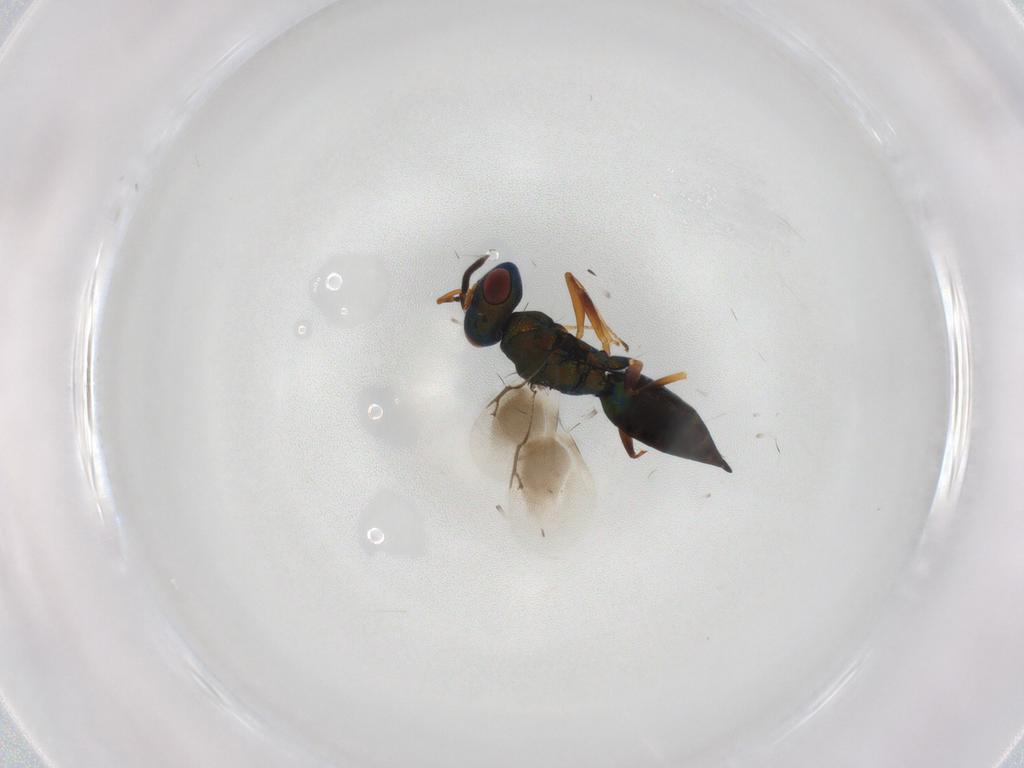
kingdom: Animalia
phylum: Arthropoda
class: Insecta
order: Hymenoptera
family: Pteromalidae
